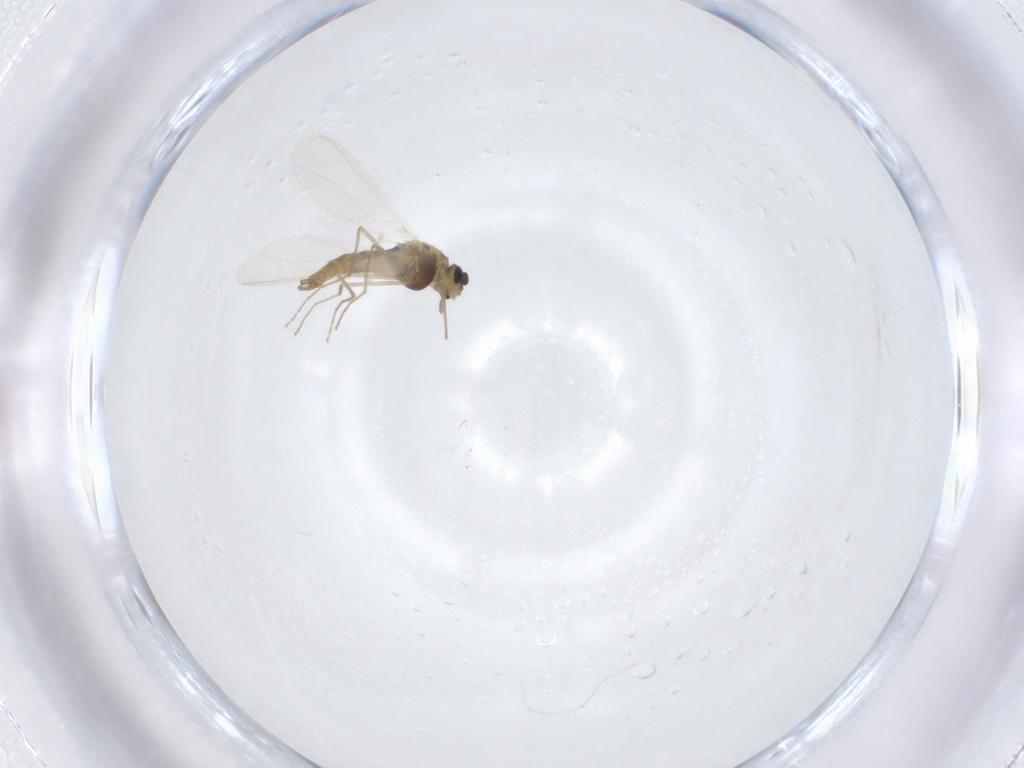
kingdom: Animalia
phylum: Arthropoda
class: Insecta
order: Diptera
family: Chironomidae
